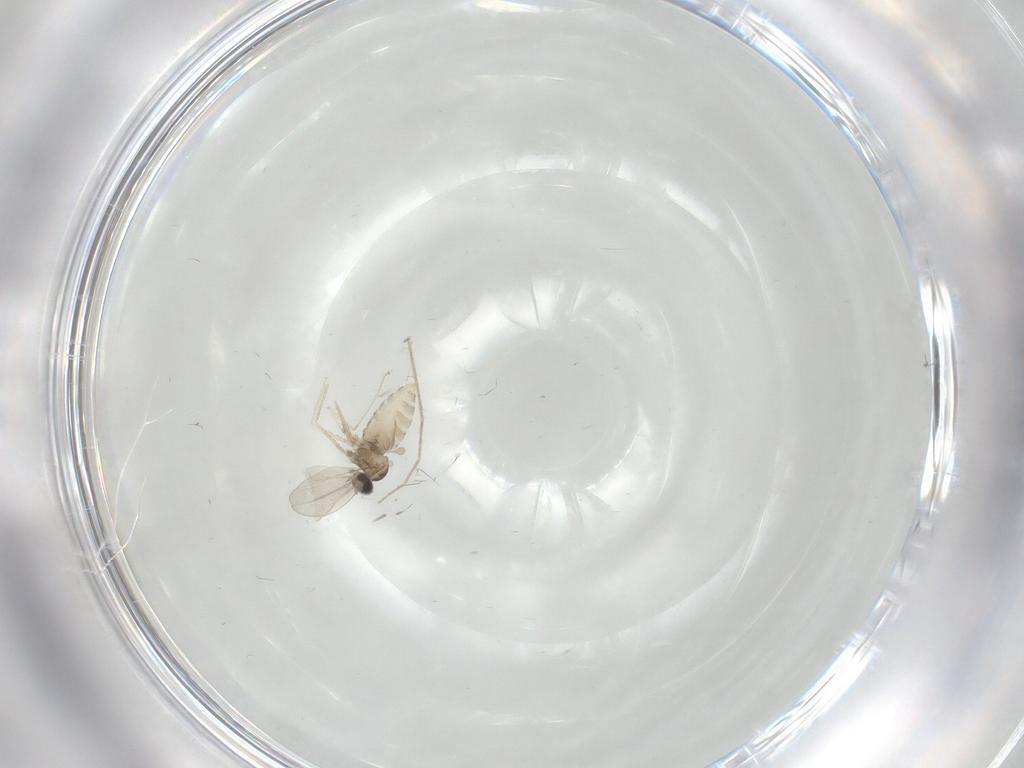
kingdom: Animalia
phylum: Arthropoda
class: Insecta
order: Diptera
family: Chironomidae
